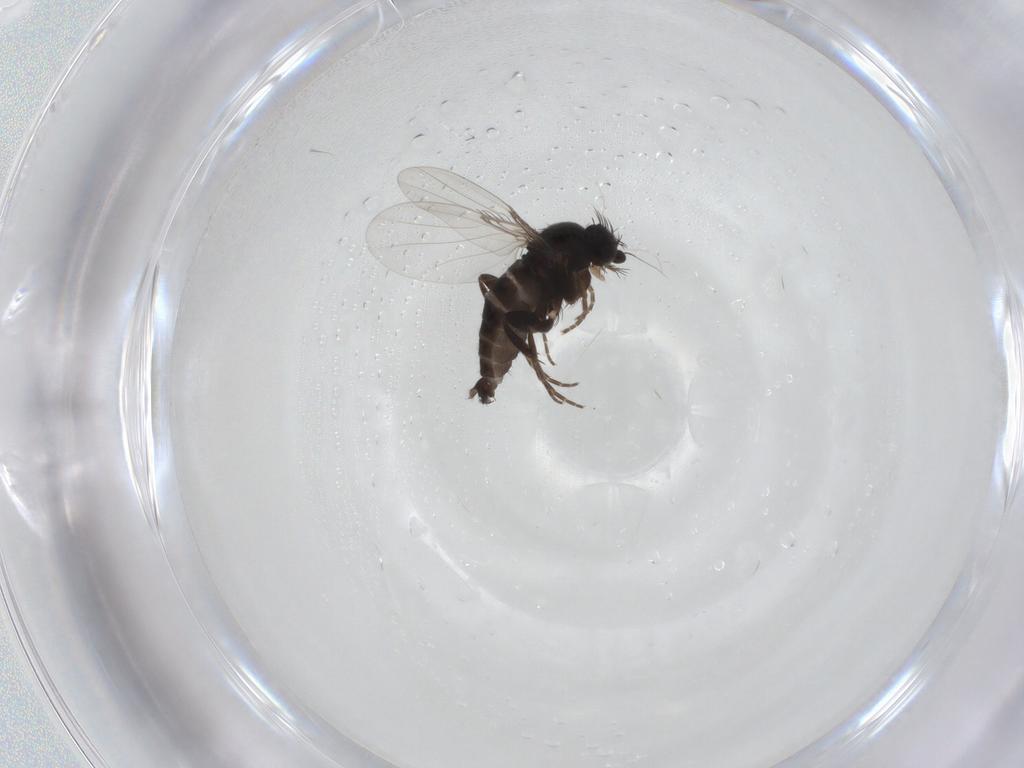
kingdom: Animalia
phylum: Arthropoda
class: Insecta
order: Diptera
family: Phoridae
